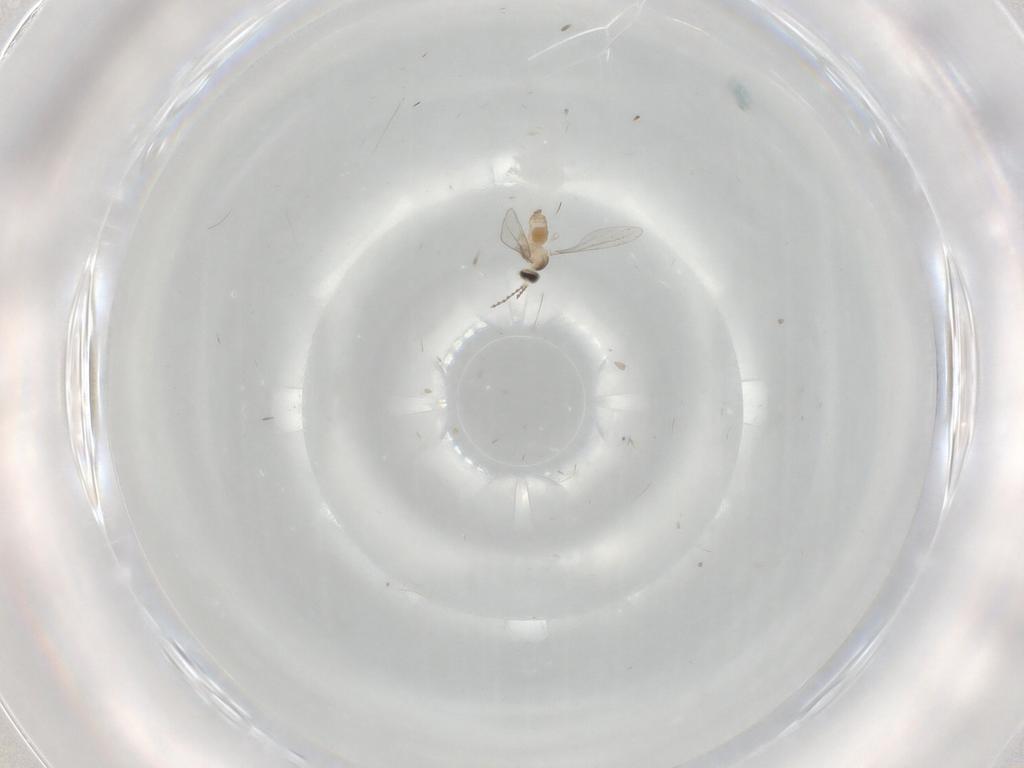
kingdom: Animalia
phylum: Arthropoda
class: Insecta
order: Diptera
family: Cecidomyiidae
